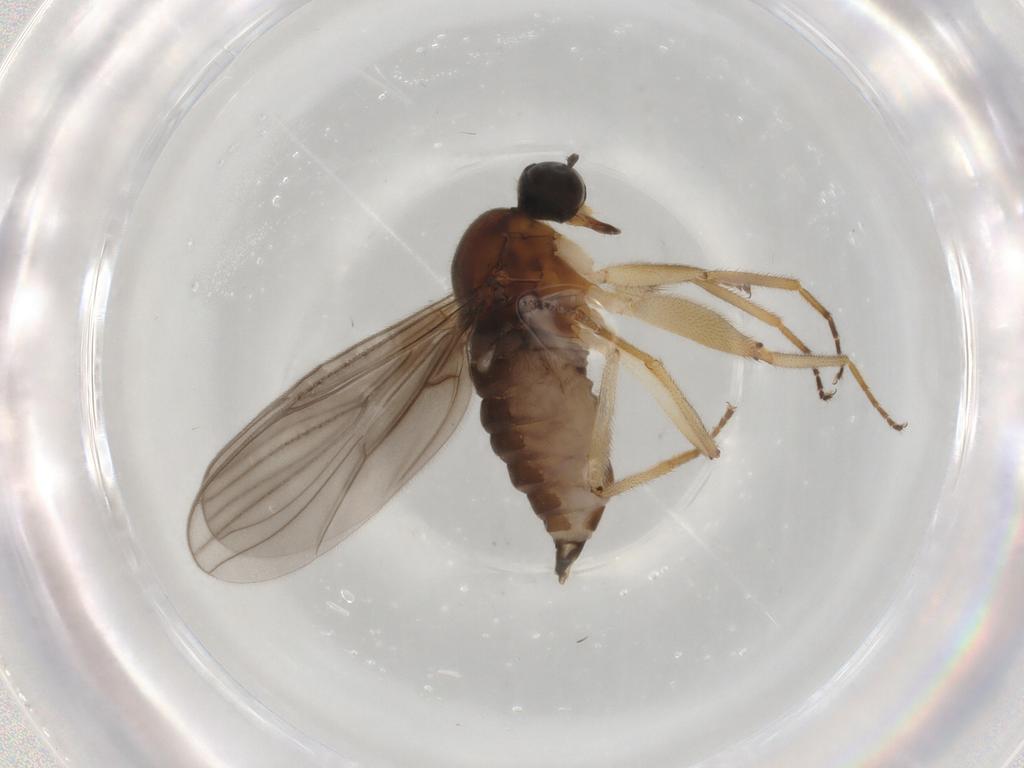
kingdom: Animalia
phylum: Arthropoda
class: Insecta
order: Diptera
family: Hybotidae
